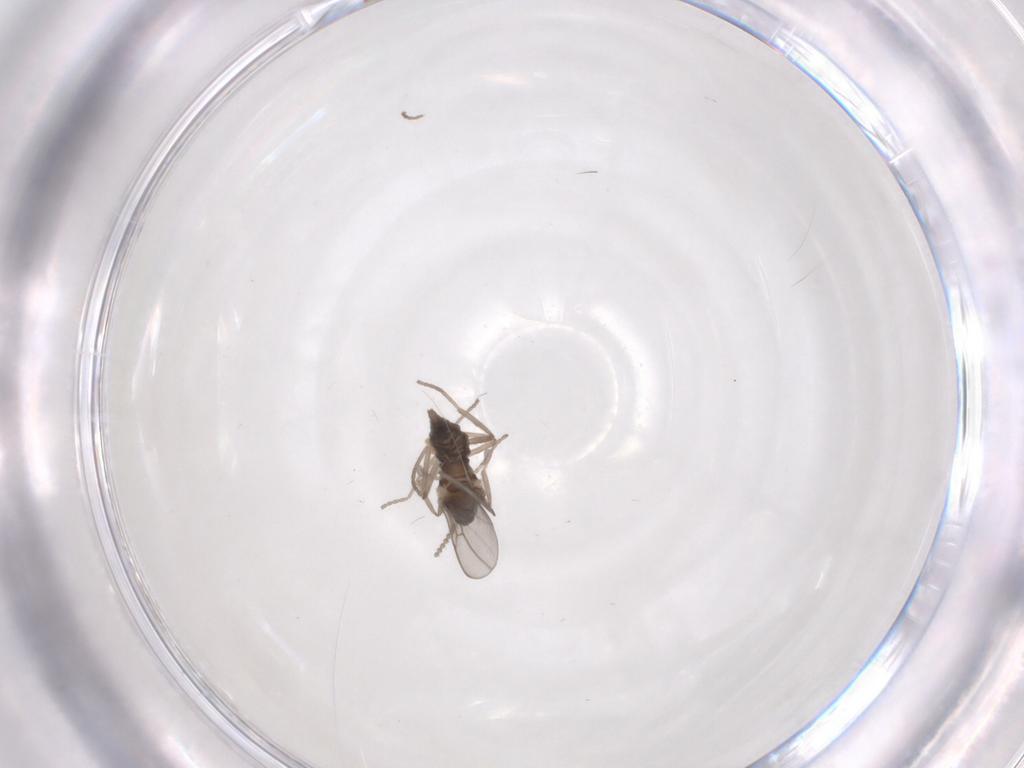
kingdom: Animalia
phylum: Arthropoda
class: Insecta
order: Diptera
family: Cecidomyiidae
